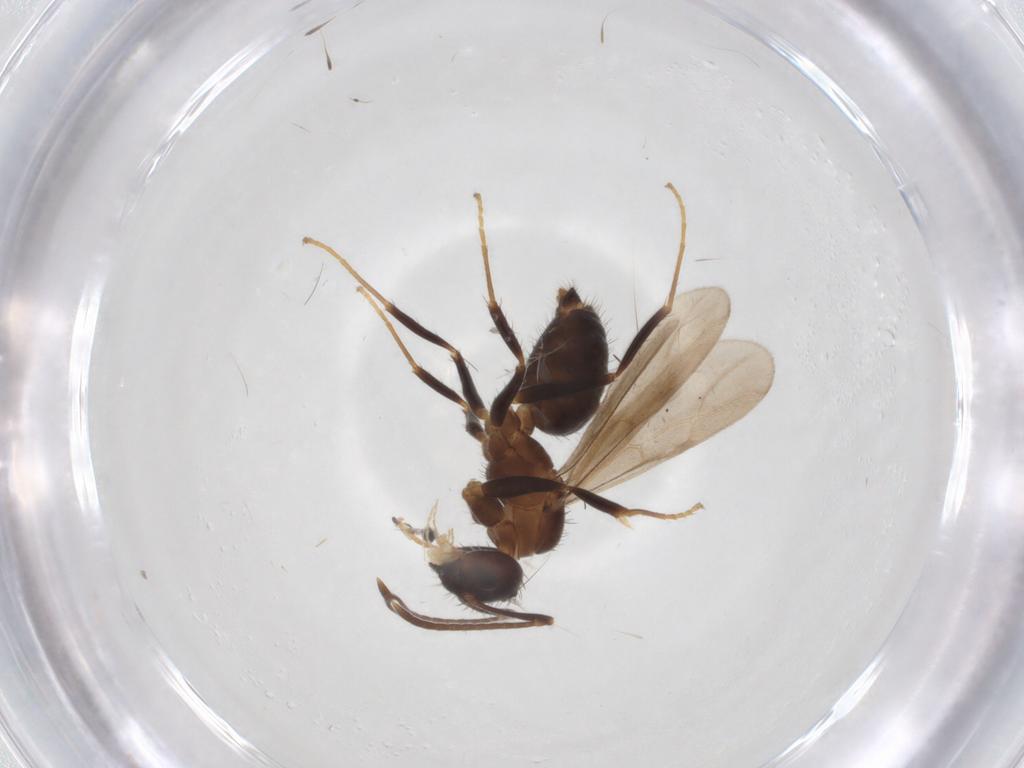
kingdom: Animalia
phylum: Arthropoda
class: Insecta
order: Hymenoptera
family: Formicidae
